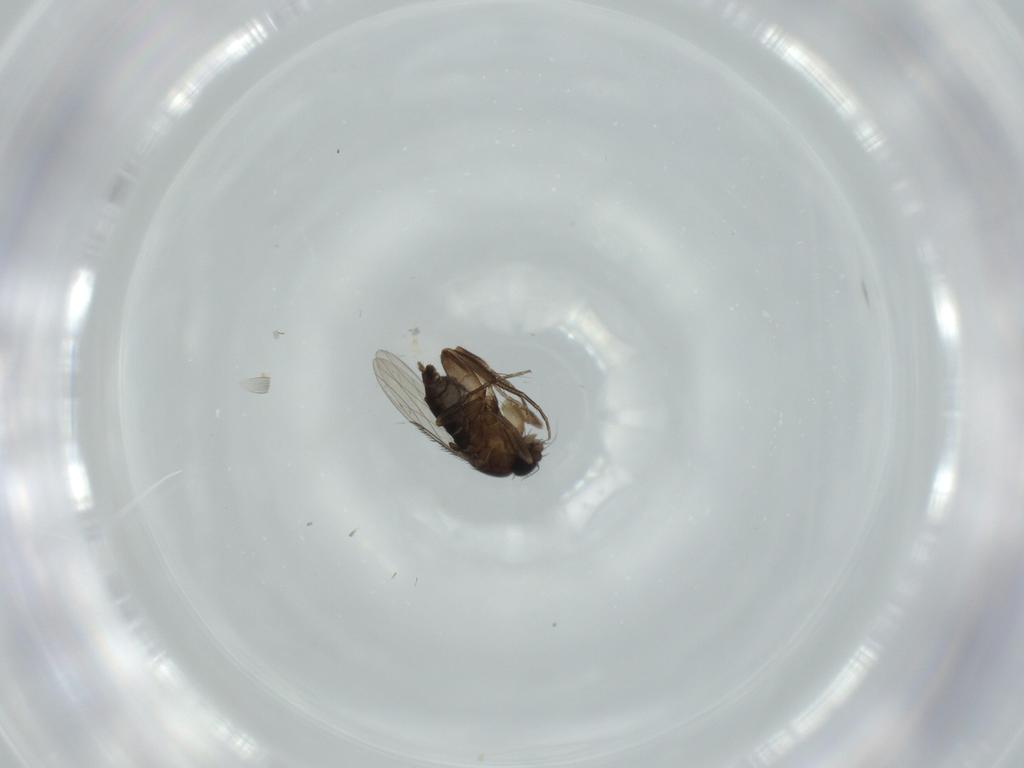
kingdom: Animalia
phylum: Arthropoda
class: Insecta
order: Diptera
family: Phoridae
